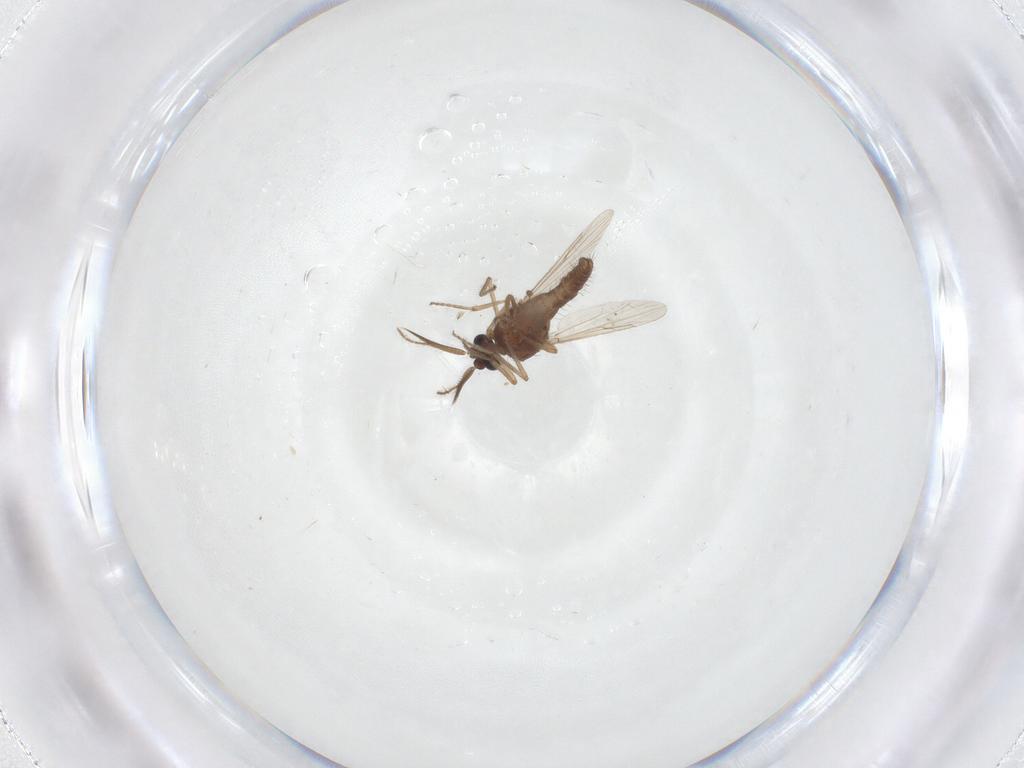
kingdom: Animalia
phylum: Arthropoda
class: Insecta
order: Diptera
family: Ceratopogonidae
